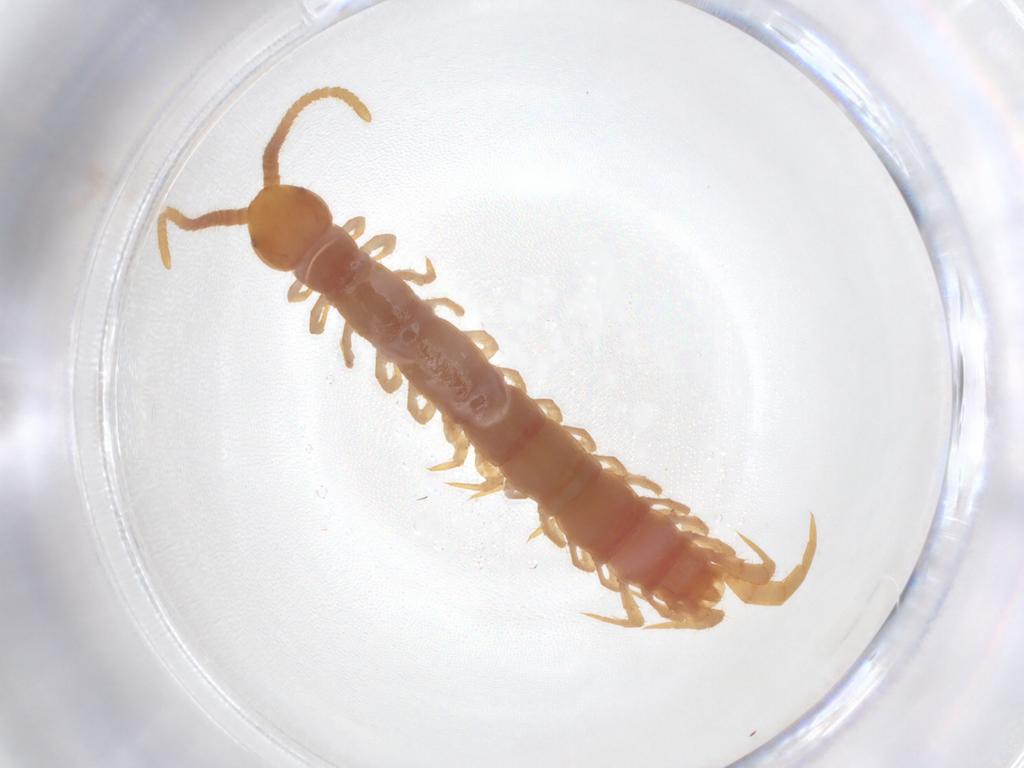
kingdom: Animalia
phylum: Arthropoda
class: Chilopoda
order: Lithobiomorpha
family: Lithobiidae
